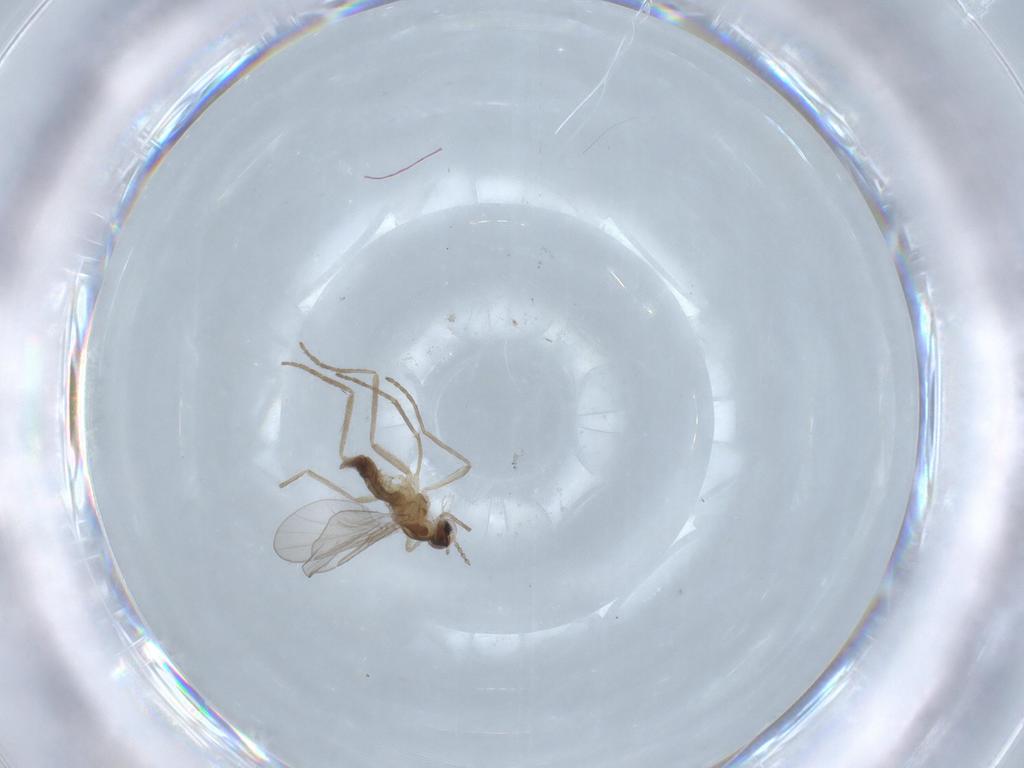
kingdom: Animalia
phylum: Arthropoda
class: Insecta
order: Diptera
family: Cecidomyiidae
